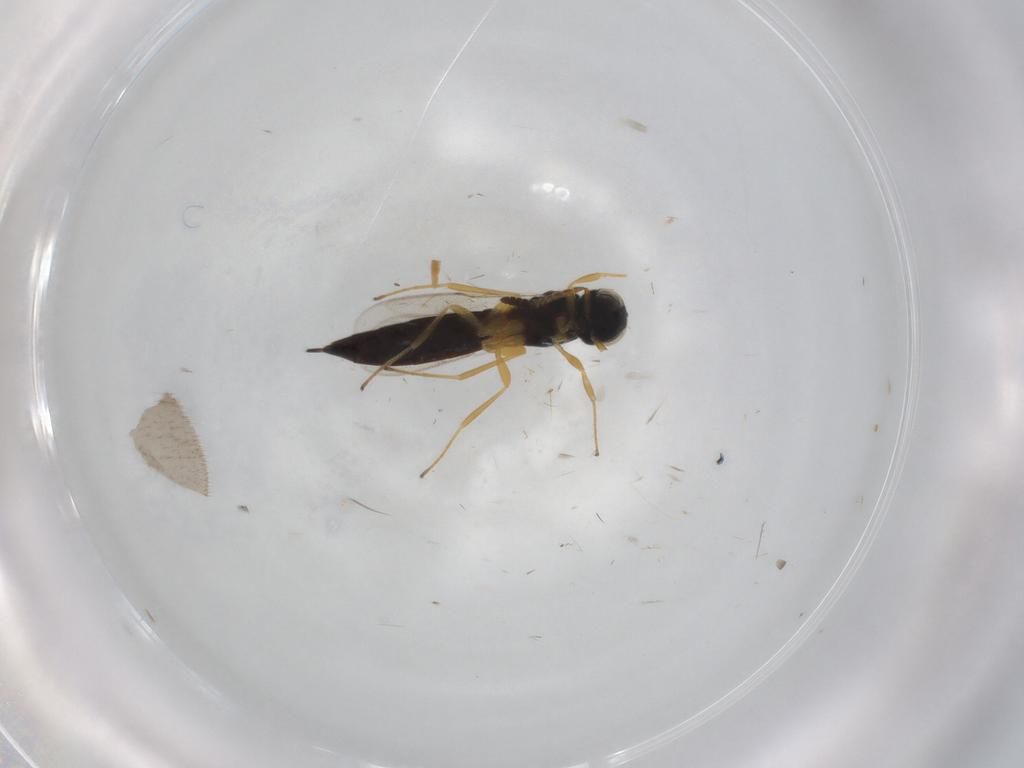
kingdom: Animalia
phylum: Arthropoda
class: Insecta
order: Hymenoptera
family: Scelionidae
